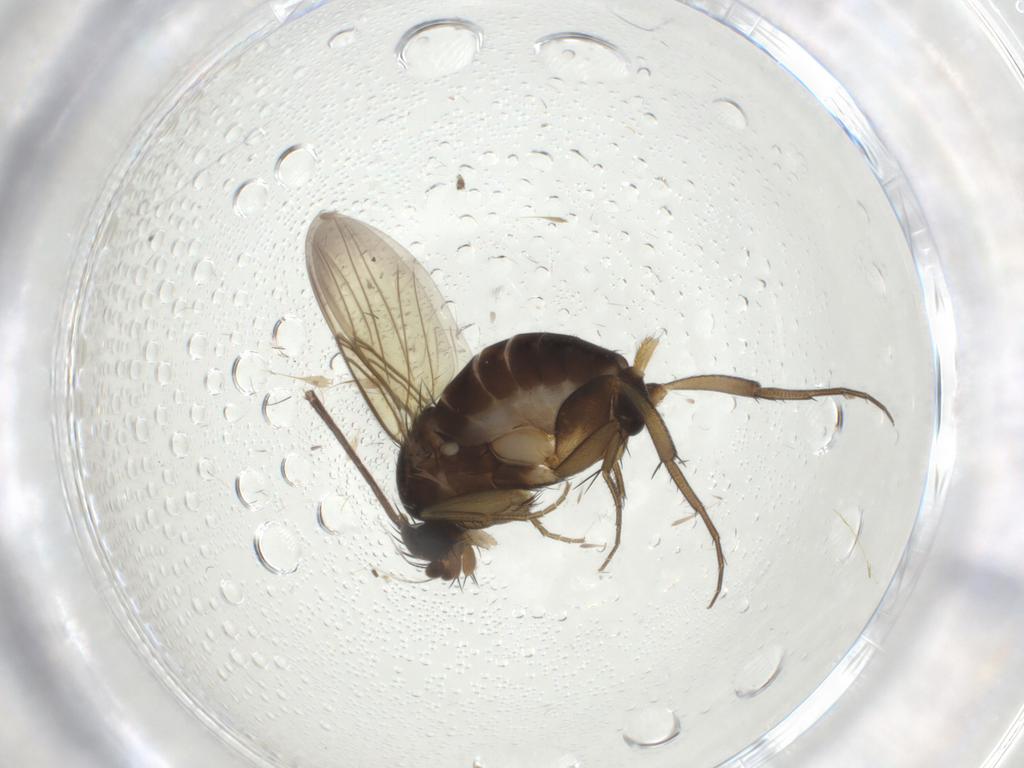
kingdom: Animalia
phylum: Arthropoda
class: Insecta
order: Diptera
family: Phoridae
